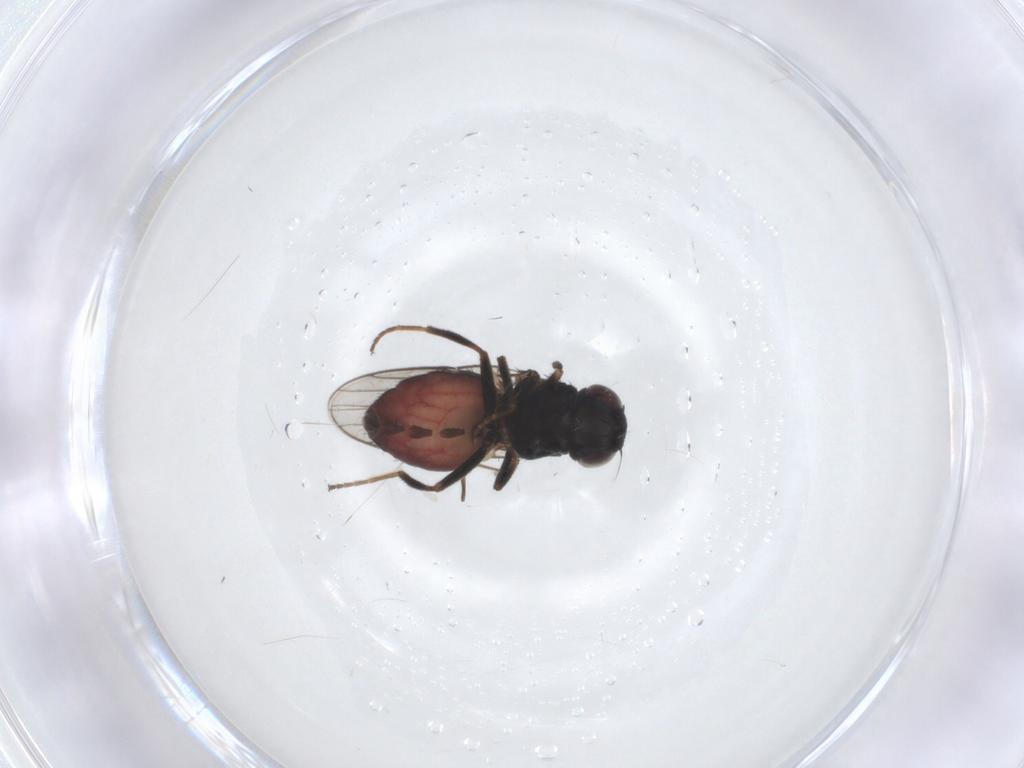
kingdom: Animalia
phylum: Arthropoda
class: Insecta
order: Diptera
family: Chloropidae
